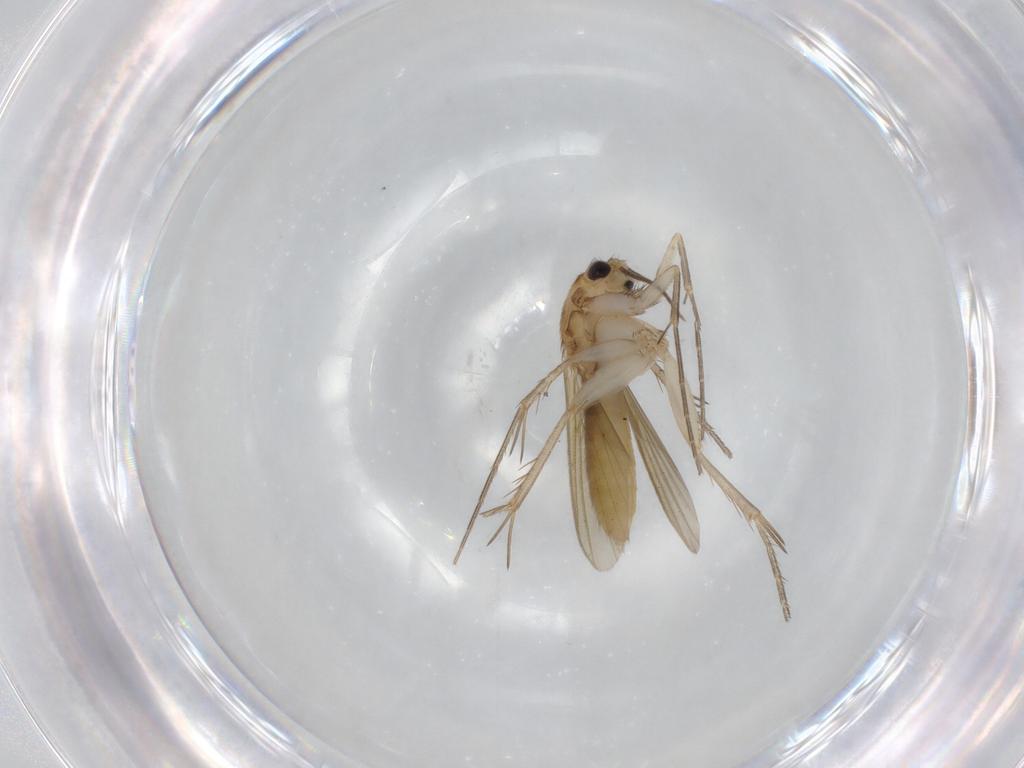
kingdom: Animalia
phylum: Arthropoda
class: Insecta
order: Diptera
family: Mycetophilidae
